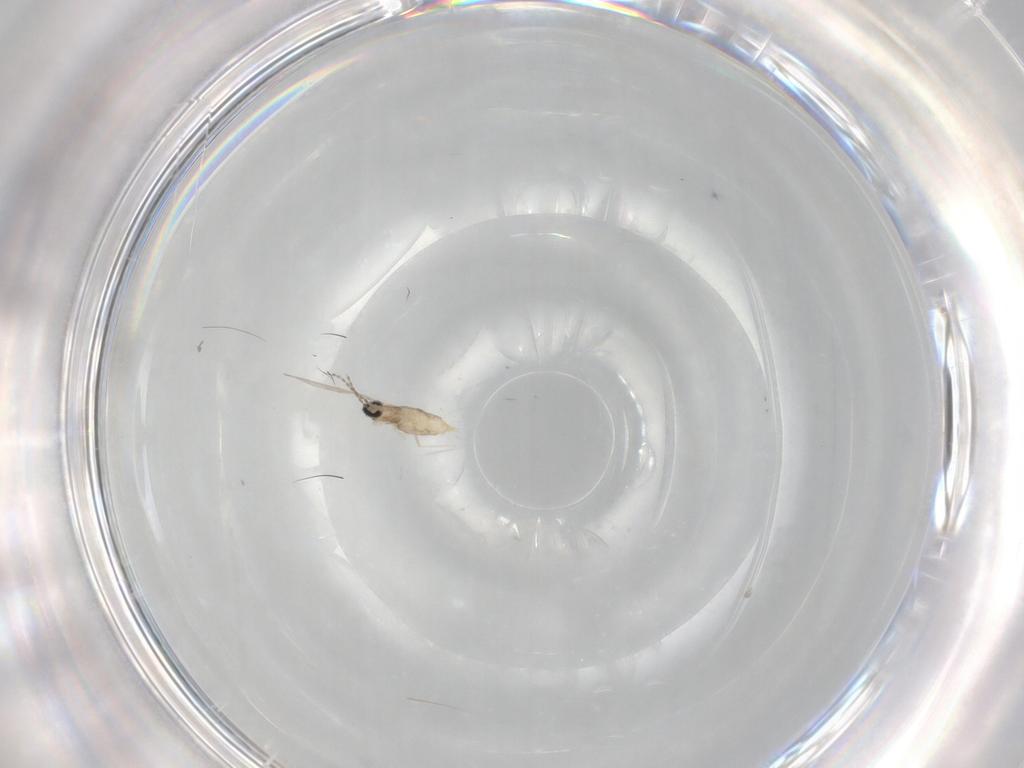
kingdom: Animalia
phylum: Arthropoda
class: Insecta
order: Diptera
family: Cecidomyiidae
